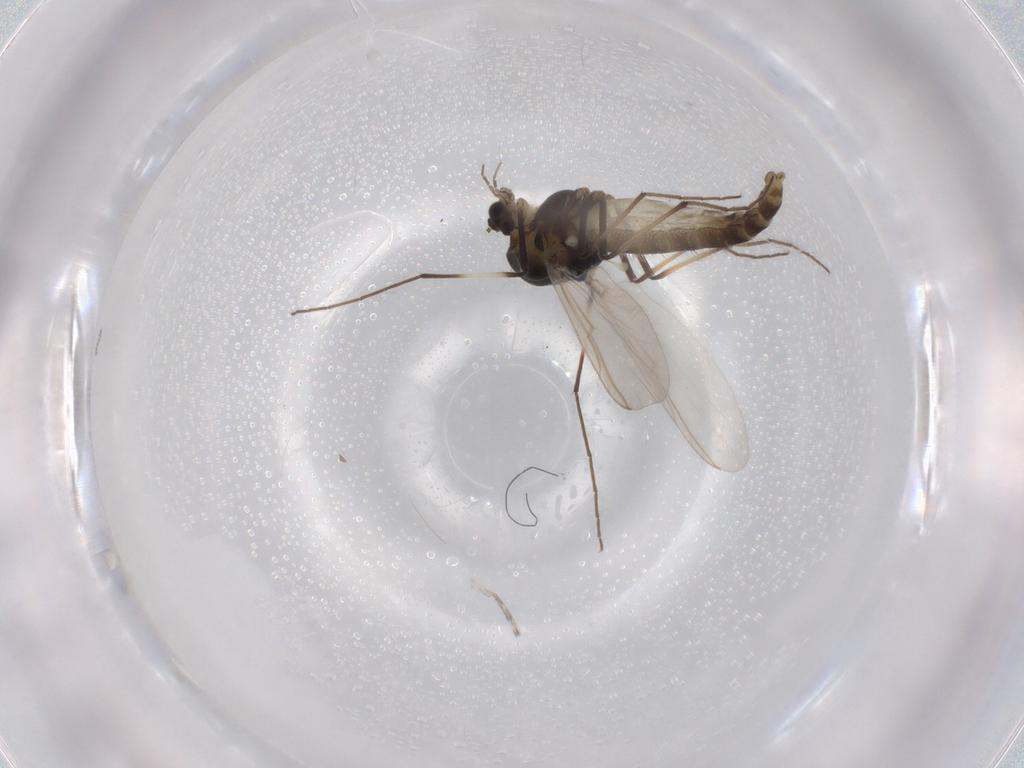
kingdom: Animalia
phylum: Arthropoda
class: Insecta
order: Diptera
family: Chironomidae
